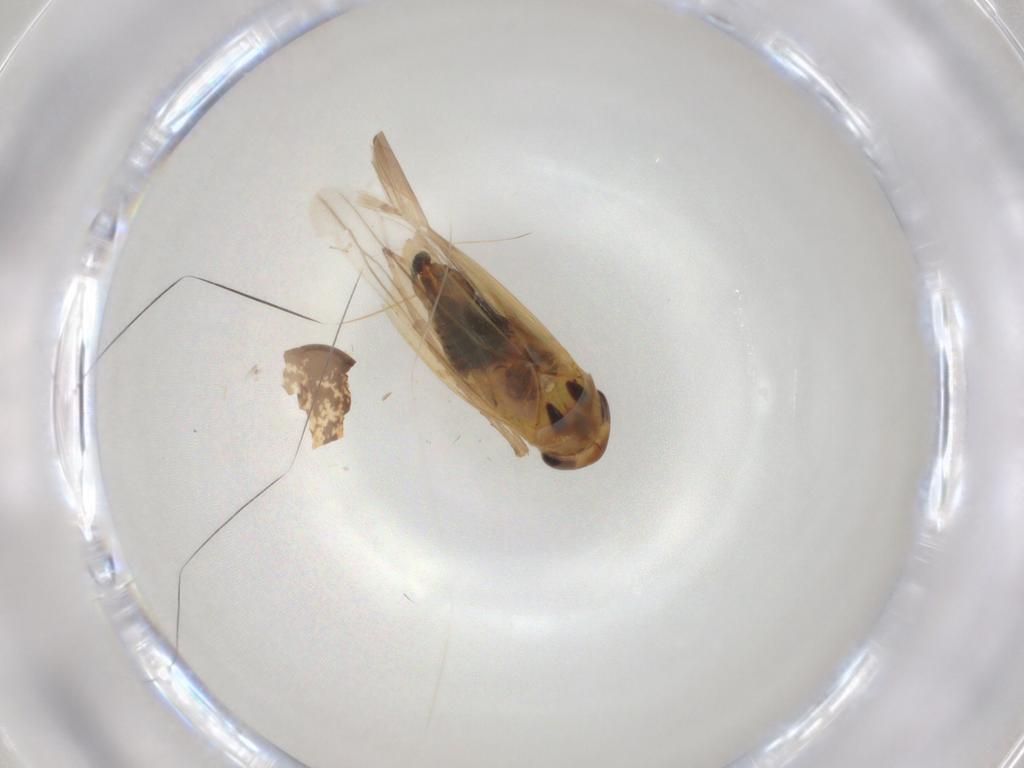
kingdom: Animalia
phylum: Arthropoda
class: Insecta
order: Hemiptera
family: Cicadellidae
